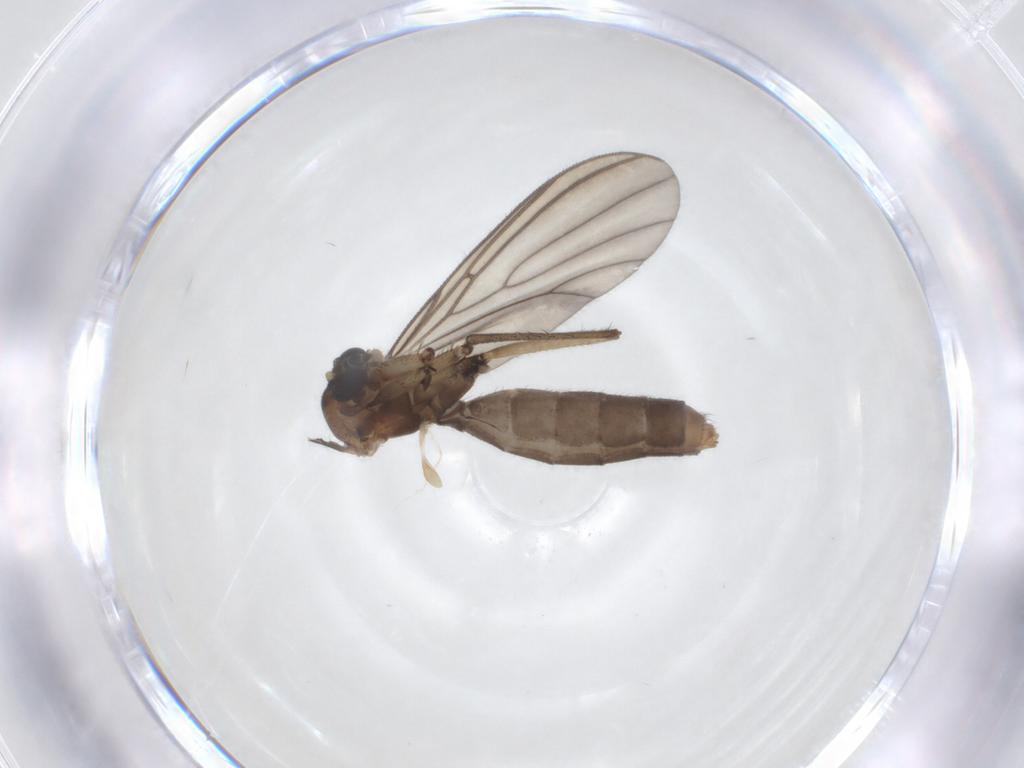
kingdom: Animalia
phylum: Arthropoda
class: Insecta
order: Diptera
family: Mycetophilidae
